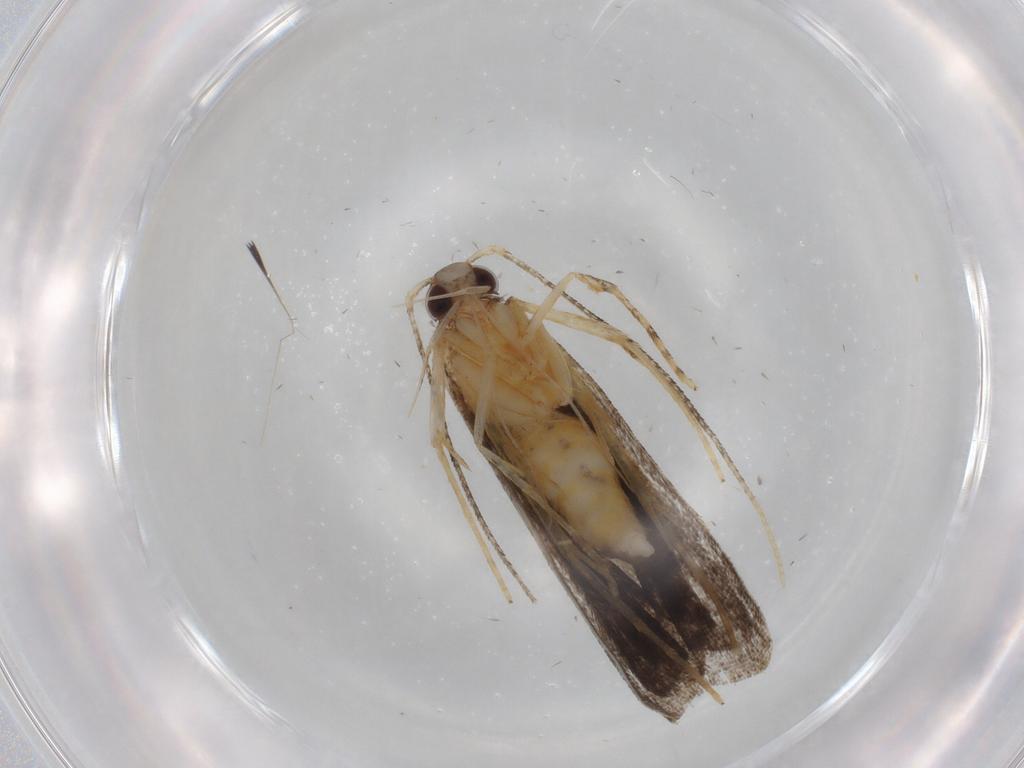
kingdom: Animalia
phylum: Arthropoda
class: Insecta
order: Lepidoptera
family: Cosmopterigidae
